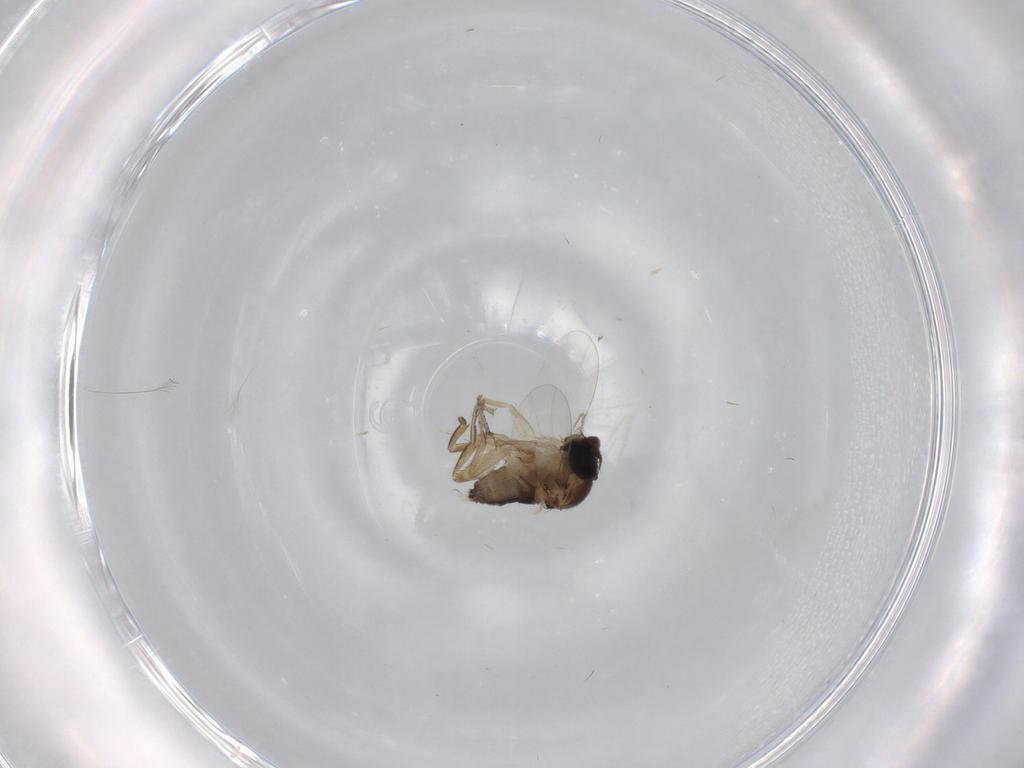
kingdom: Animalia
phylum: Arthropoda
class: Insecta
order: Diptera
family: Phoridae
